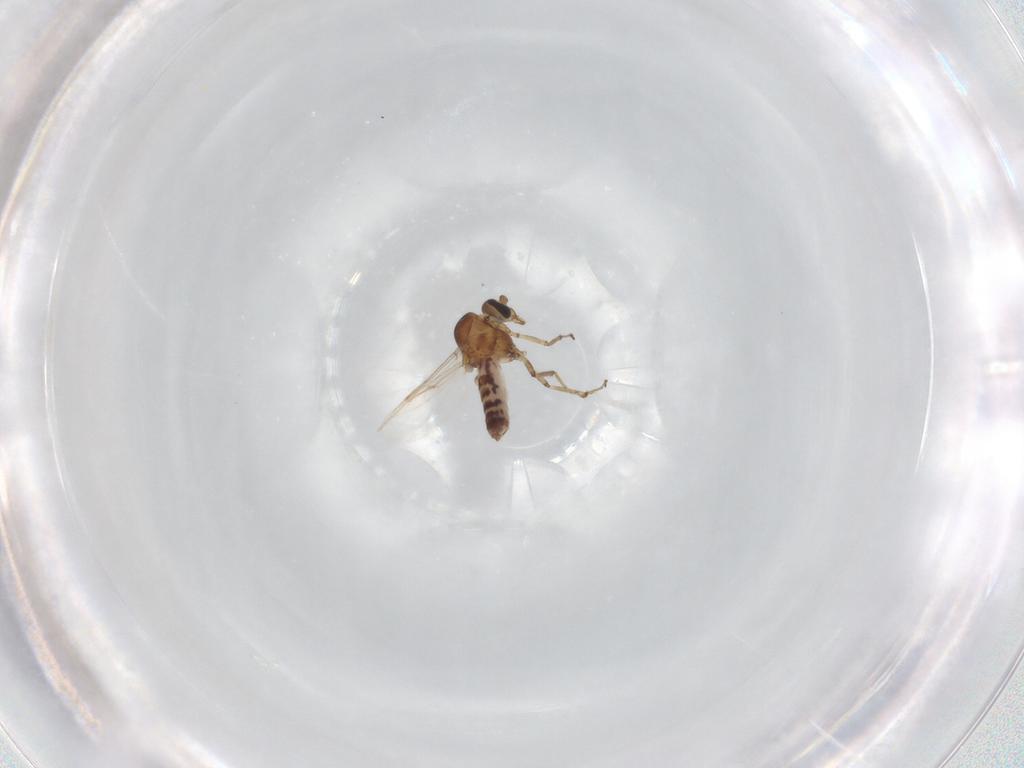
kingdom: Animalia
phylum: Arthropoda
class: Insecta
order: Diptera
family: Ceratopogonidae
